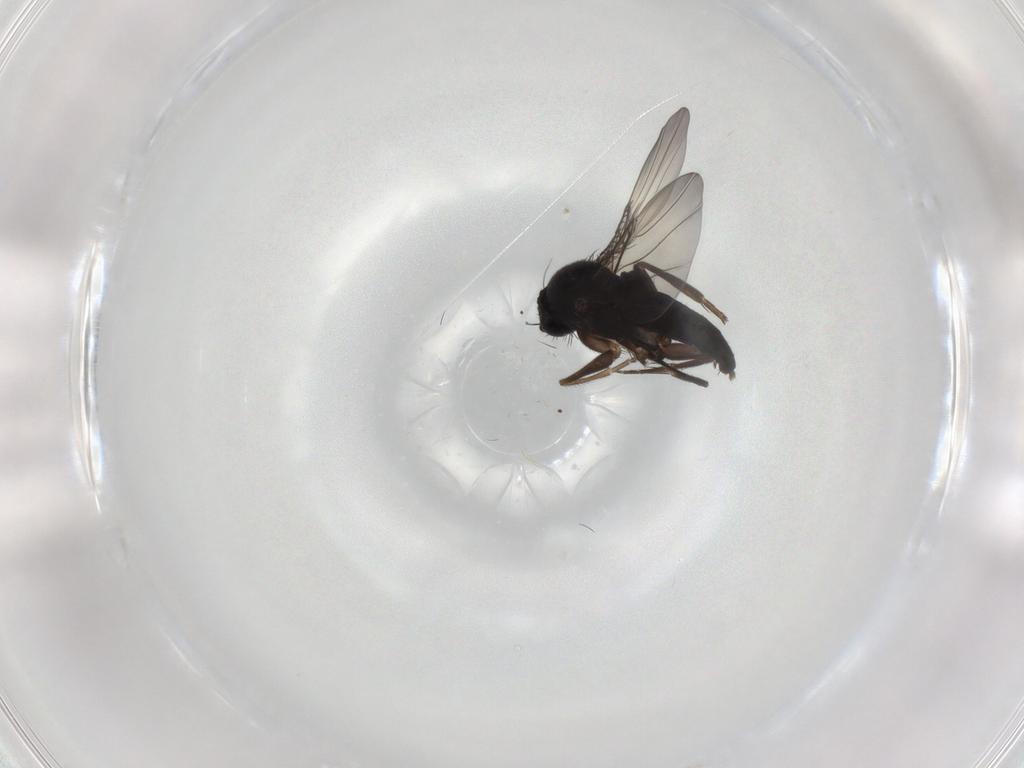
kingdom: Animalia
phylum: Arthropoda
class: Insecta
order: Diptera
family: Phoridae
